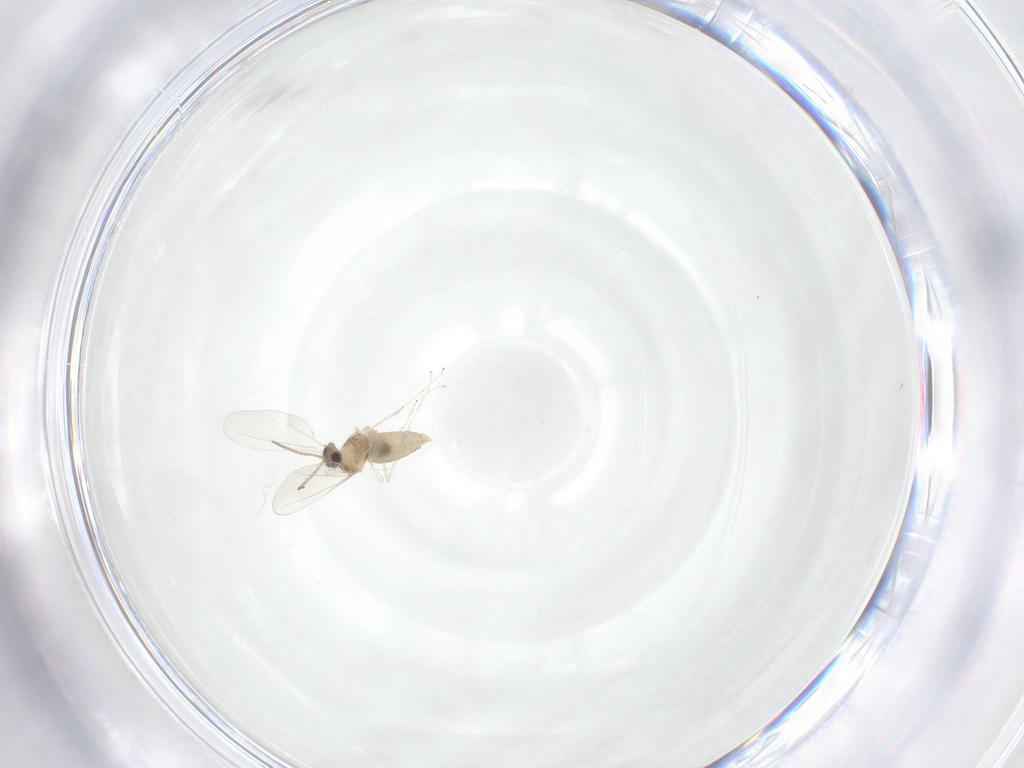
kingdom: Animalia
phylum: Arthropoda
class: Insecta
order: Diptera
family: Cecidomyiidae
